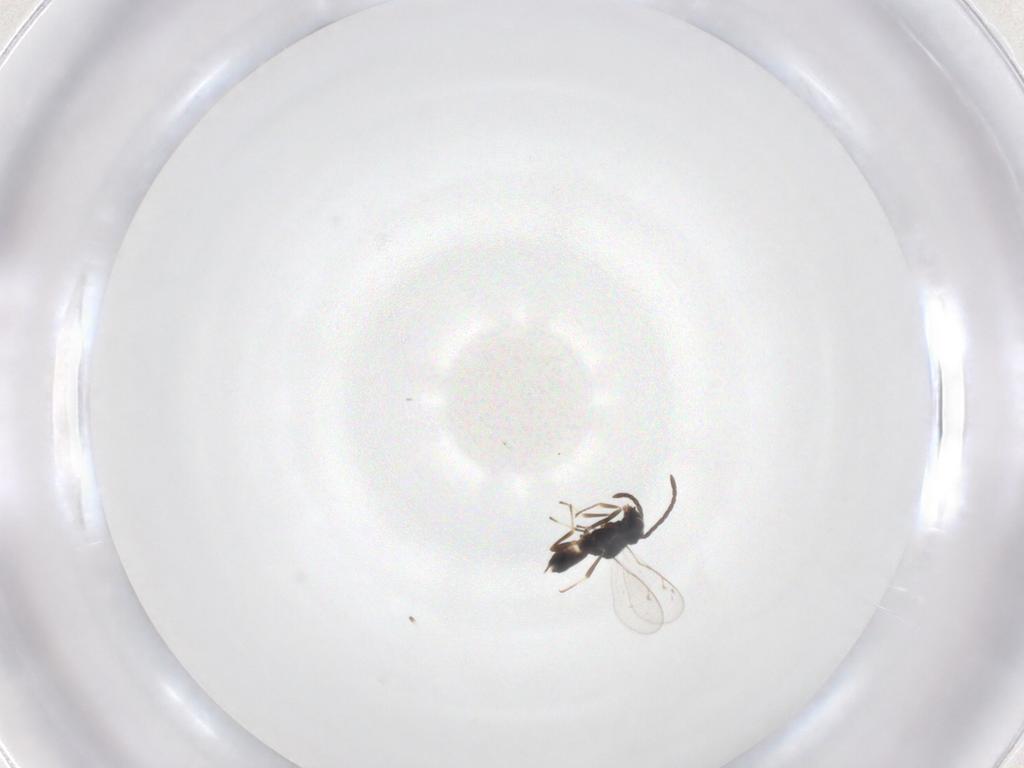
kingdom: Animalia
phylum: Arthropoda
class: Insecta
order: Hymenoptera
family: Eupelmidae
